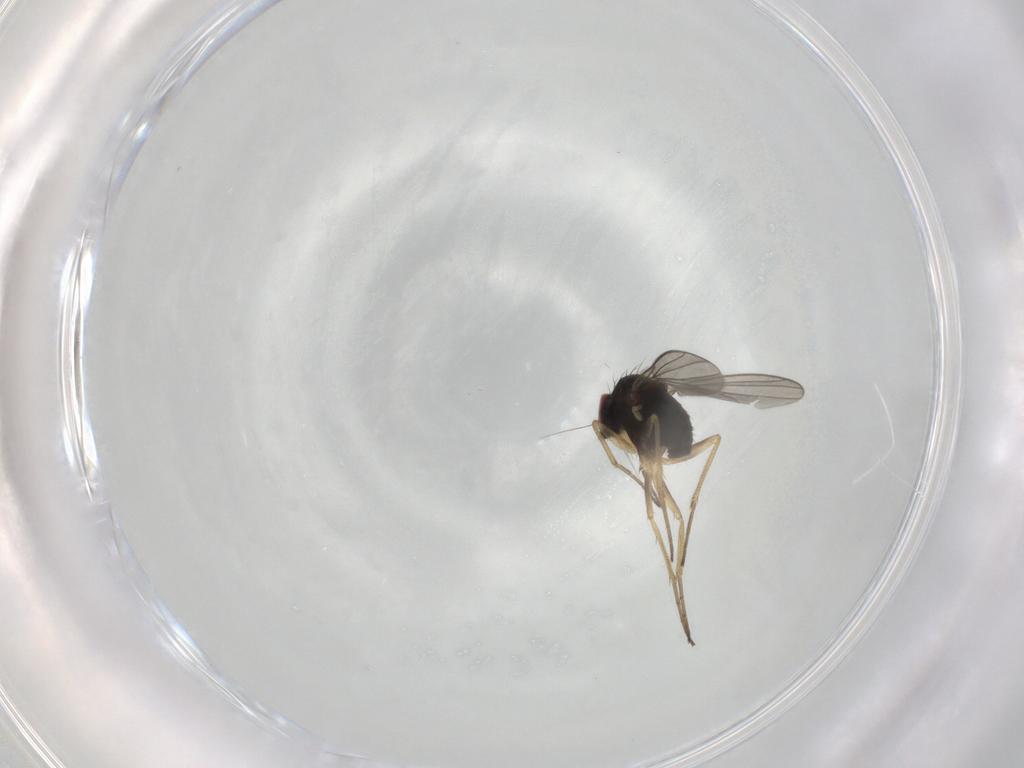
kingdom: Animalia
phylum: Arthropoda
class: Insecta
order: Diptera
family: Dolichopodidae
